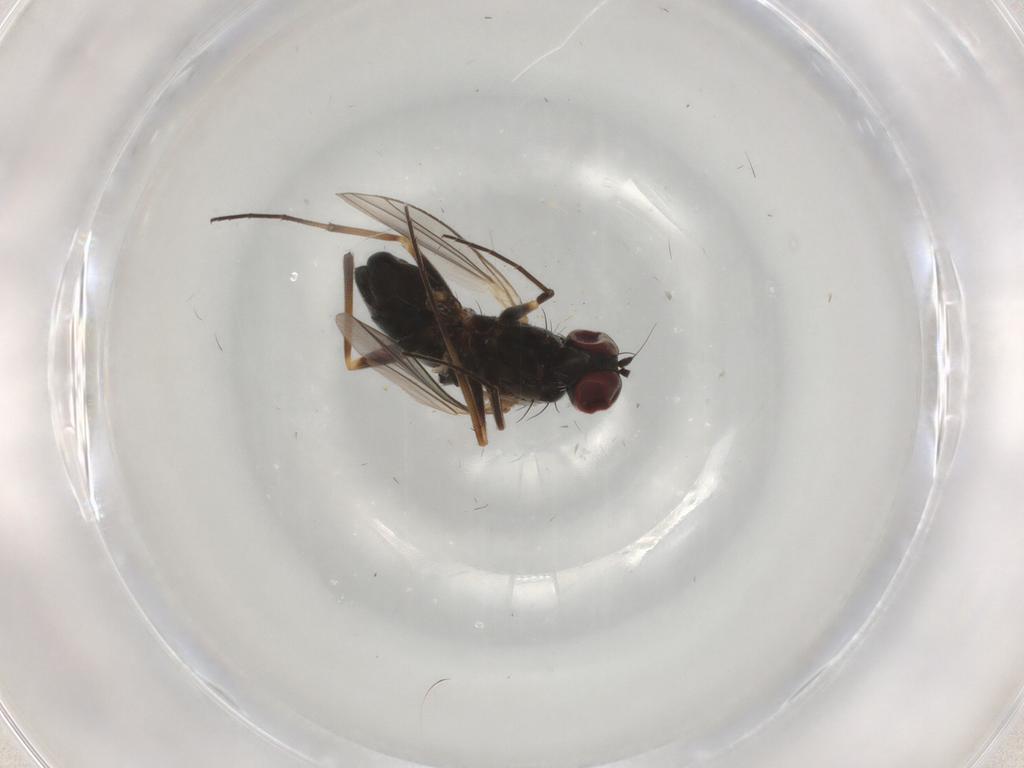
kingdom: Animalia
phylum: Arthropoda
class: Insecta
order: Diptera
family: Dolichopodidae
